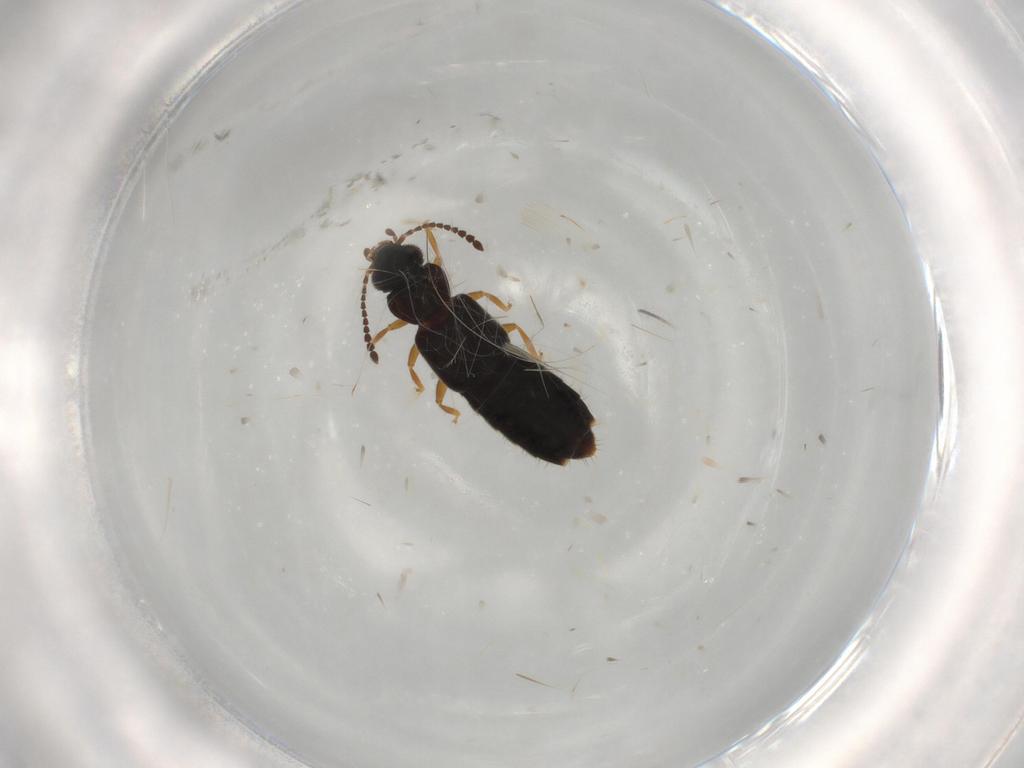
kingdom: Animalia
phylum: Arthropoda
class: Insecta
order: Coleoptera
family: Staphylinidae
